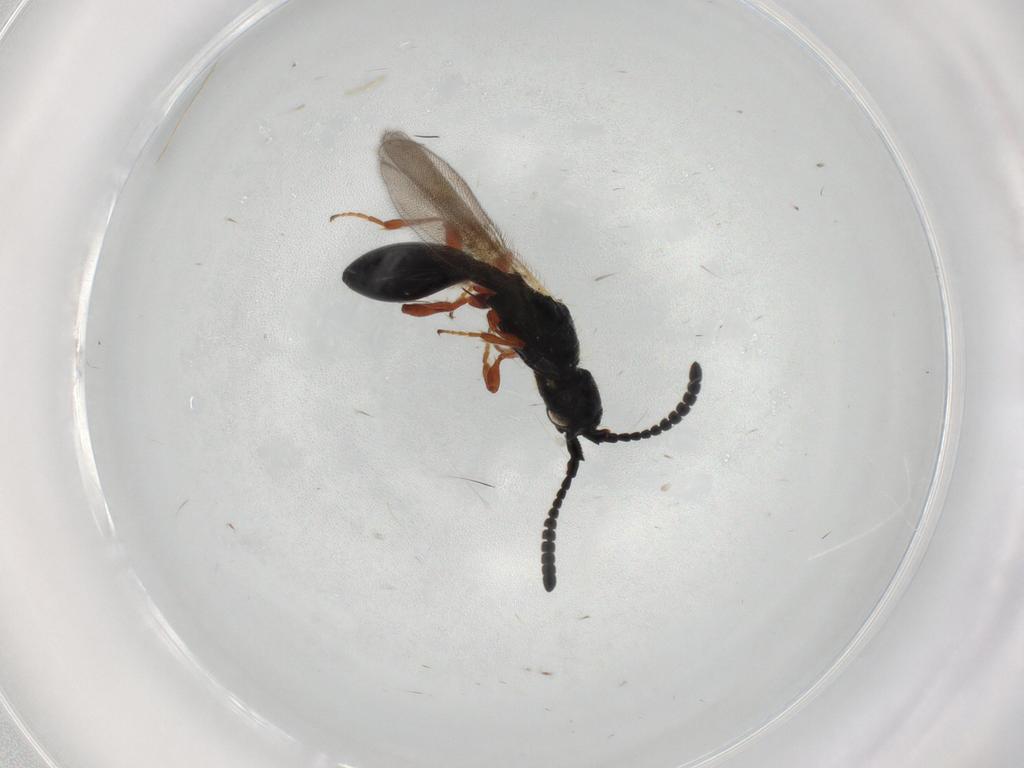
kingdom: Animalia
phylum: Arthropoda
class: Insecta
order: Hymenoptera
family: Diapriidae
